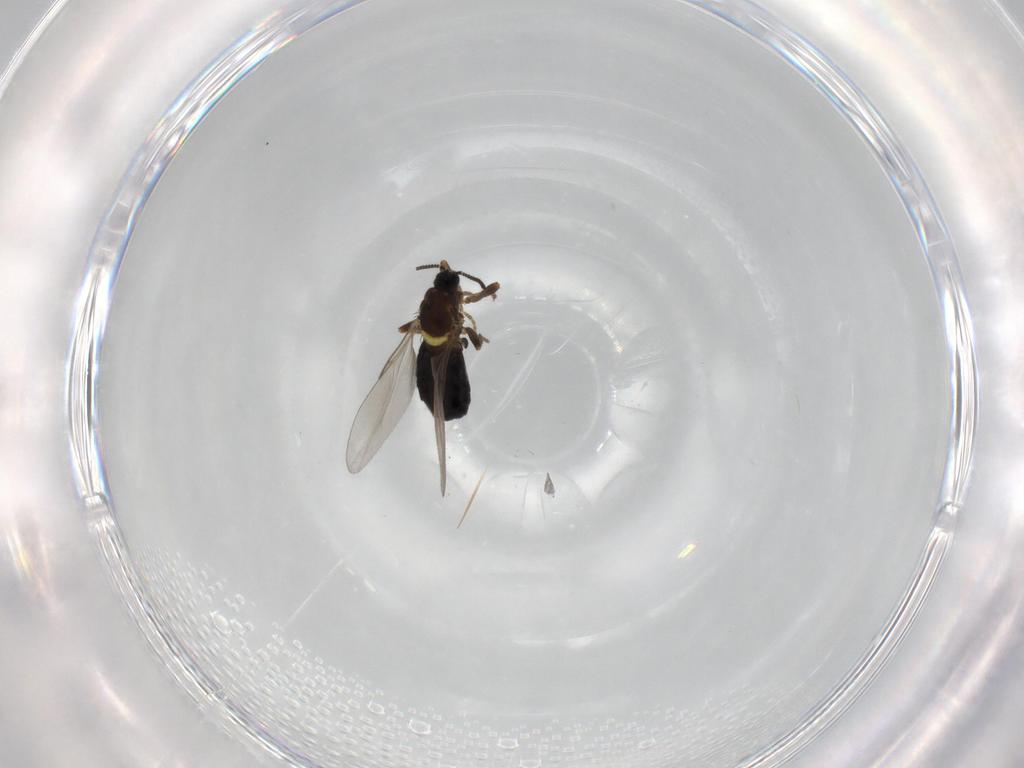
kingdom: Animalia
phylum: Arthropoda
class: Insecta
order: Diptera
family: Scatopsidae
